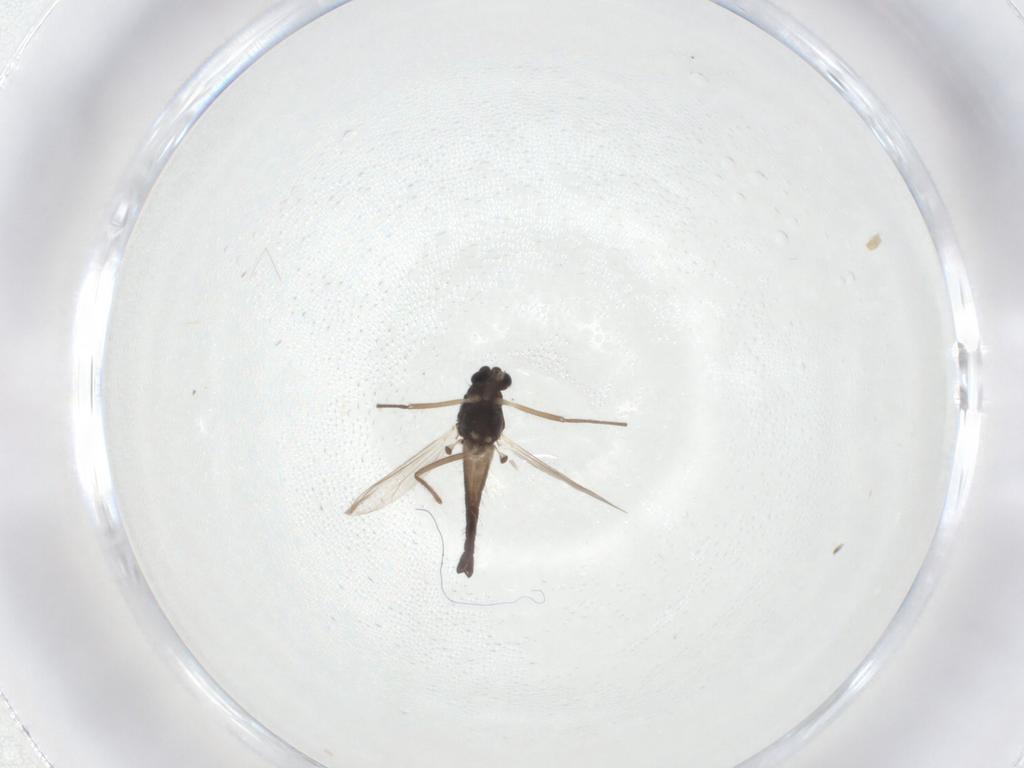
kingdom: Animalia
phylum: Arthropoda
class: Insecta
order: Diptera
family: Chironomidae
